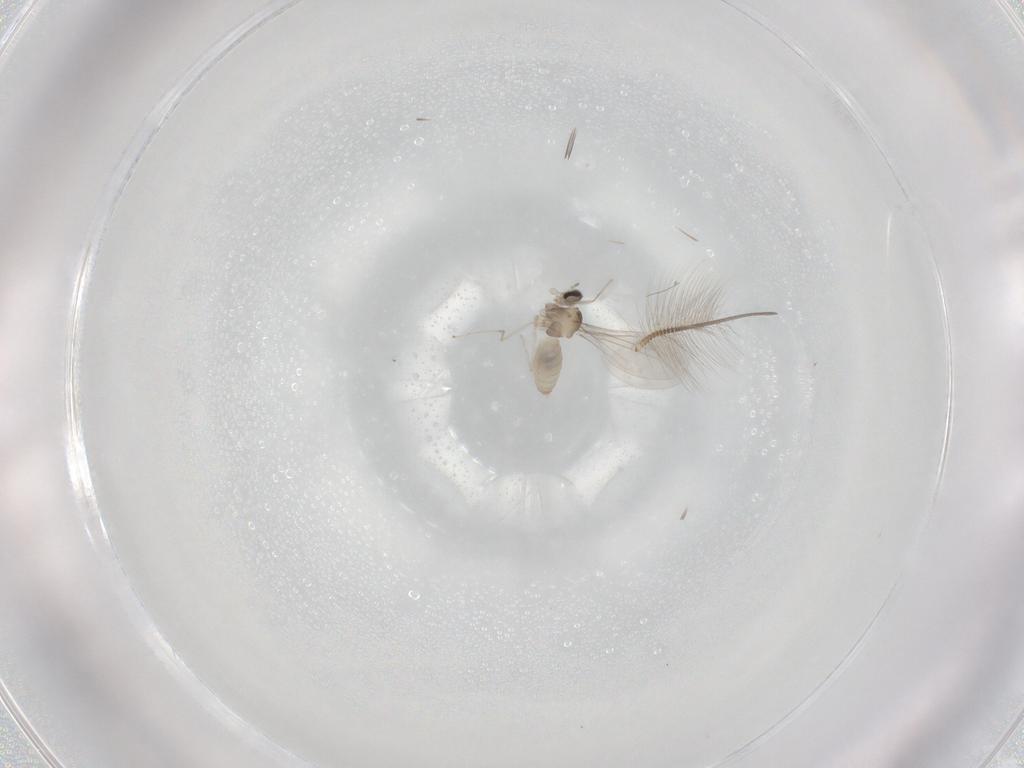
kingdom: Animalia
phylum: Arthropoda
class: Insecta
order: Diptera
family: Chironomidae
